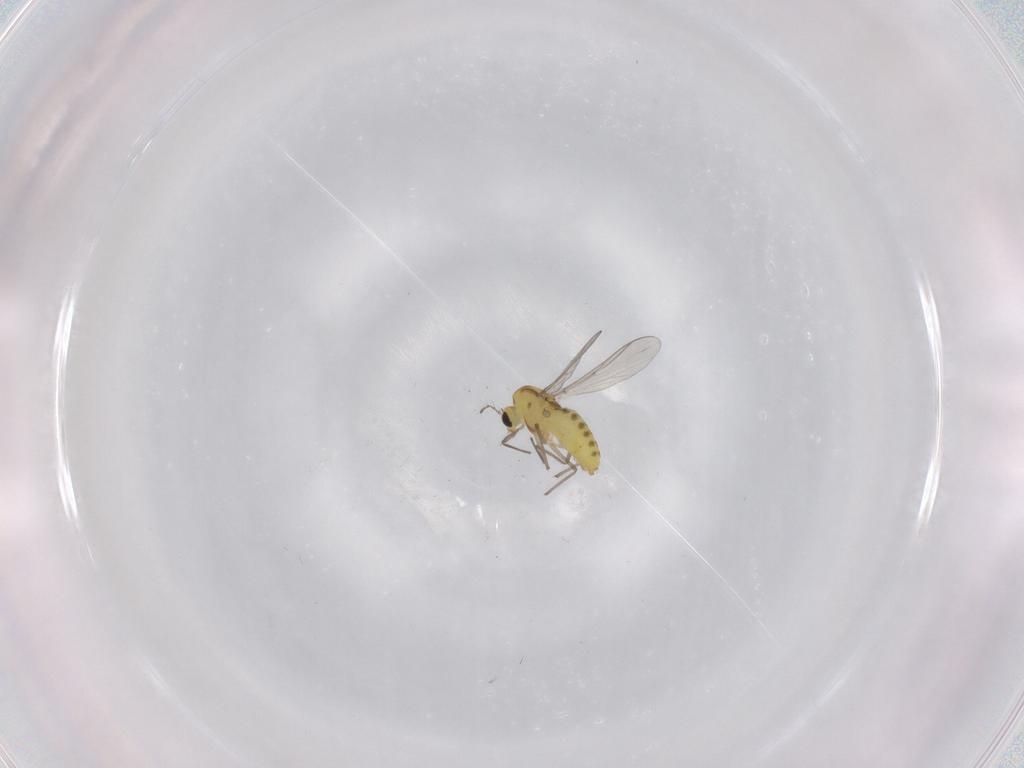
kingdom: Animalia
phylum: Arthropoda
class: Insecta
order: Diptera
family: Chironomidae
